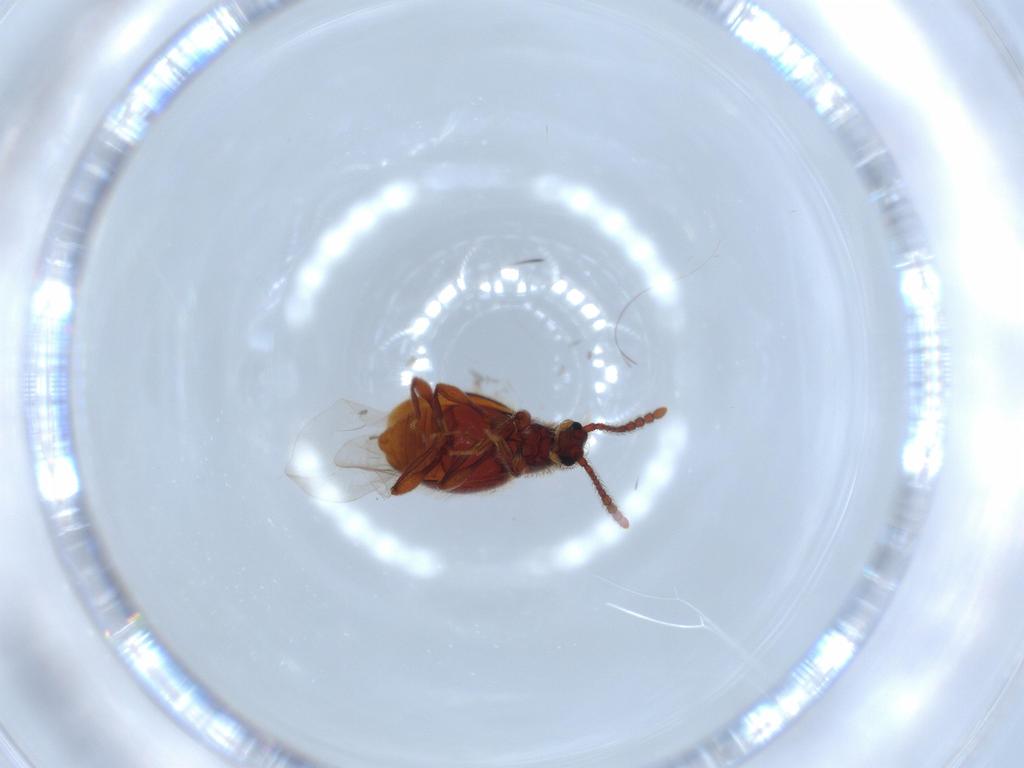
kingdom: Animalia
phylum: Arthropoda
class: Insecta
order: Coleoptera
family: Staphylinidae
